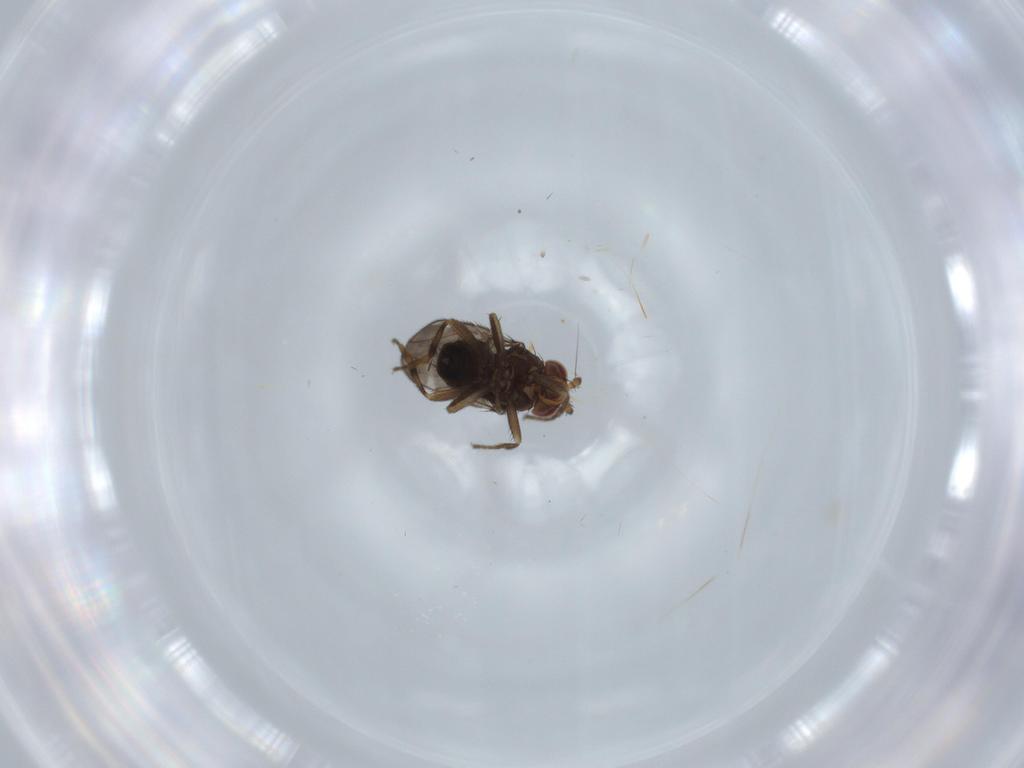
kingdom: Animalia
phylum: Arthropoda
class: Insecta
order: Diptera
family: Sphaeroceridae
